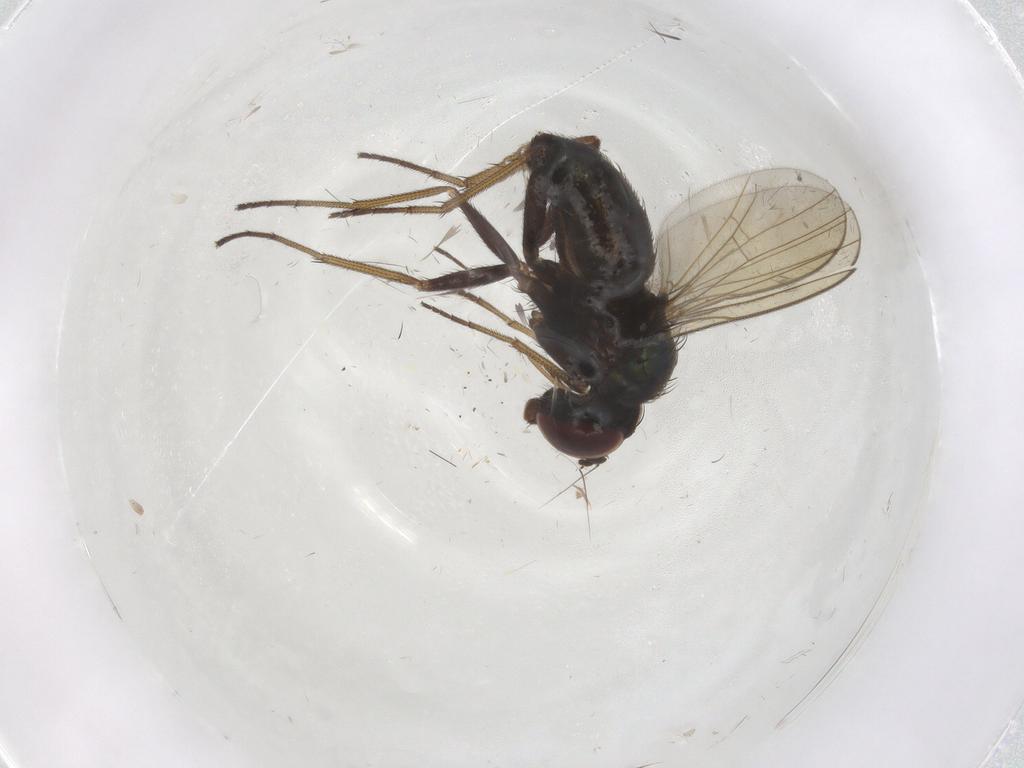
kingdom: Animalia
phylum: Arthropoda
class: Insecta
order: Diptera
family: Dolichopodidae
